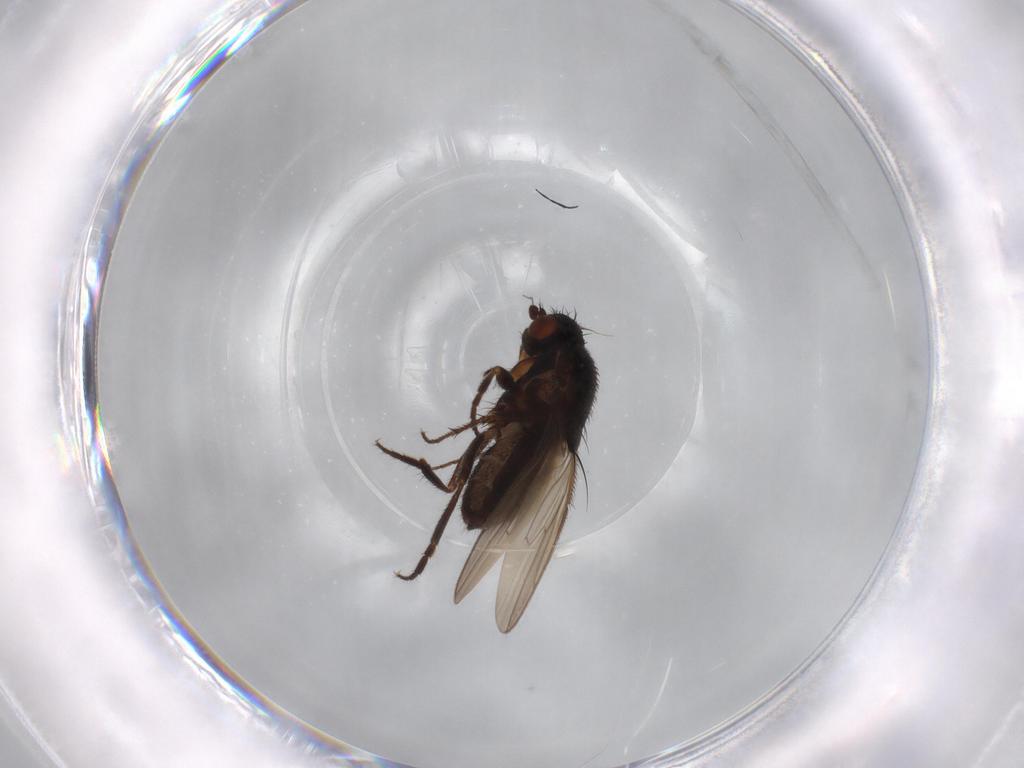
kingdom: Animalia
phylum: Arthropoda
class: Insecta
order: Diptera
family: Sphaeroceridae
